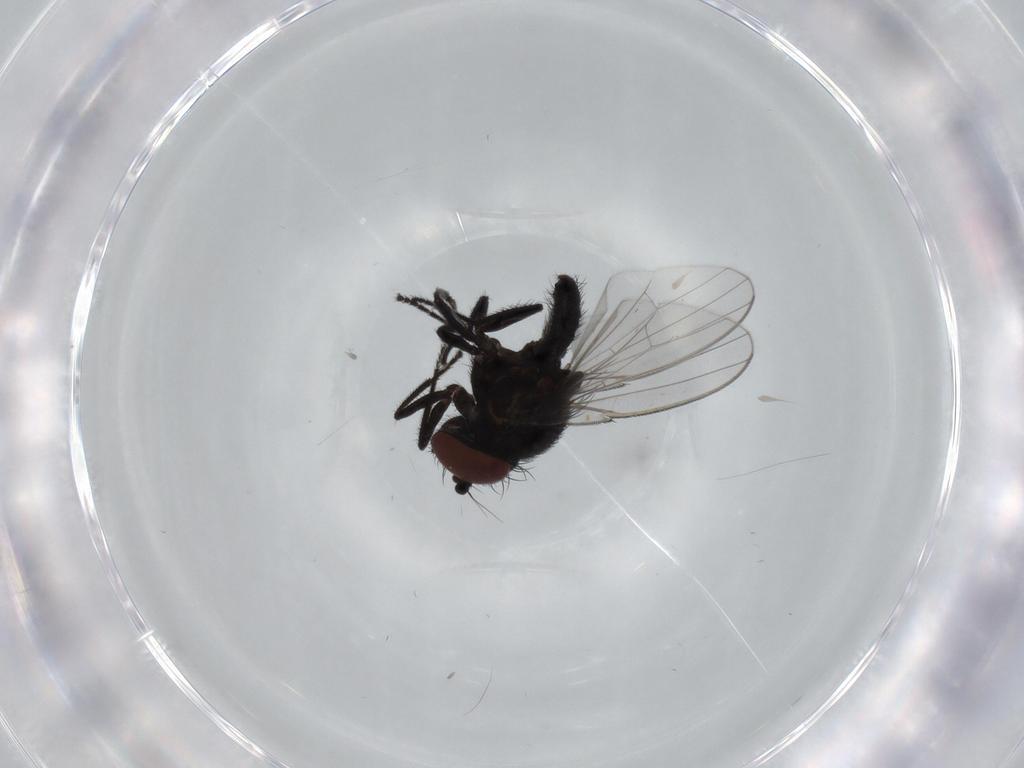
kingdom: Animalia
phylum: Arthropoda
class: Insecta
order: Diptera
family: Milichiidae
